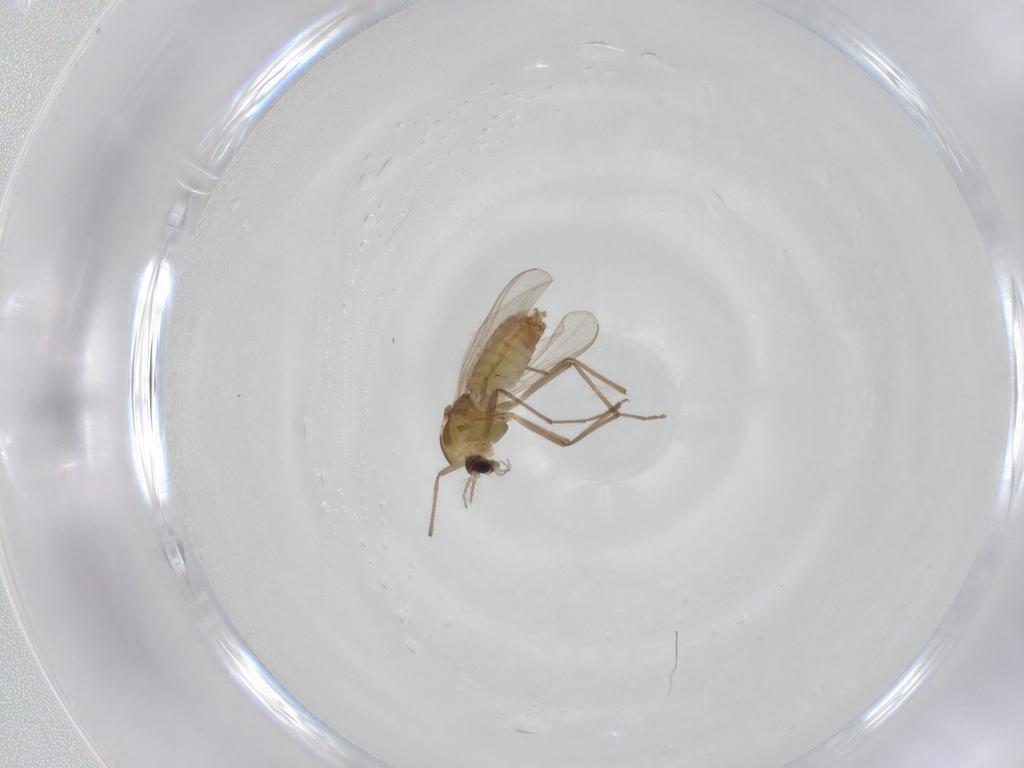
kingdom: Animalia
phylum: Arthropoda
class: Insecta
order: Diptera
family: Chironomidae
